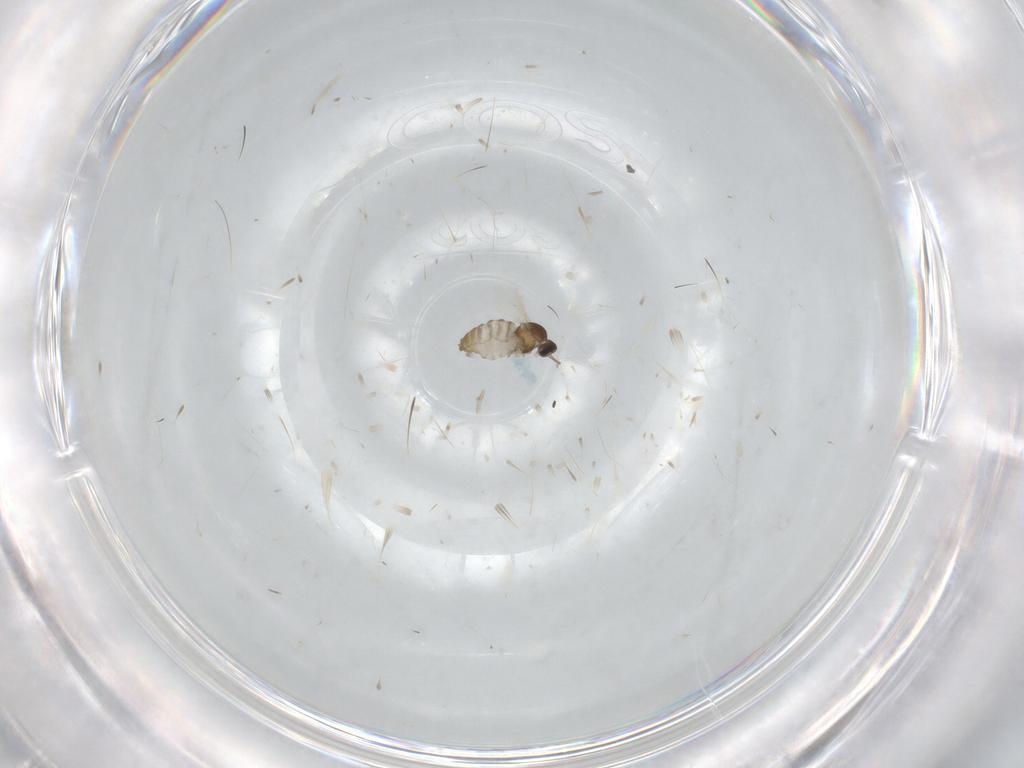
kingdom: Animalia
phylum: Arthropoda
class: Insecta
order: Diptera
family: Cecidomyiidae
